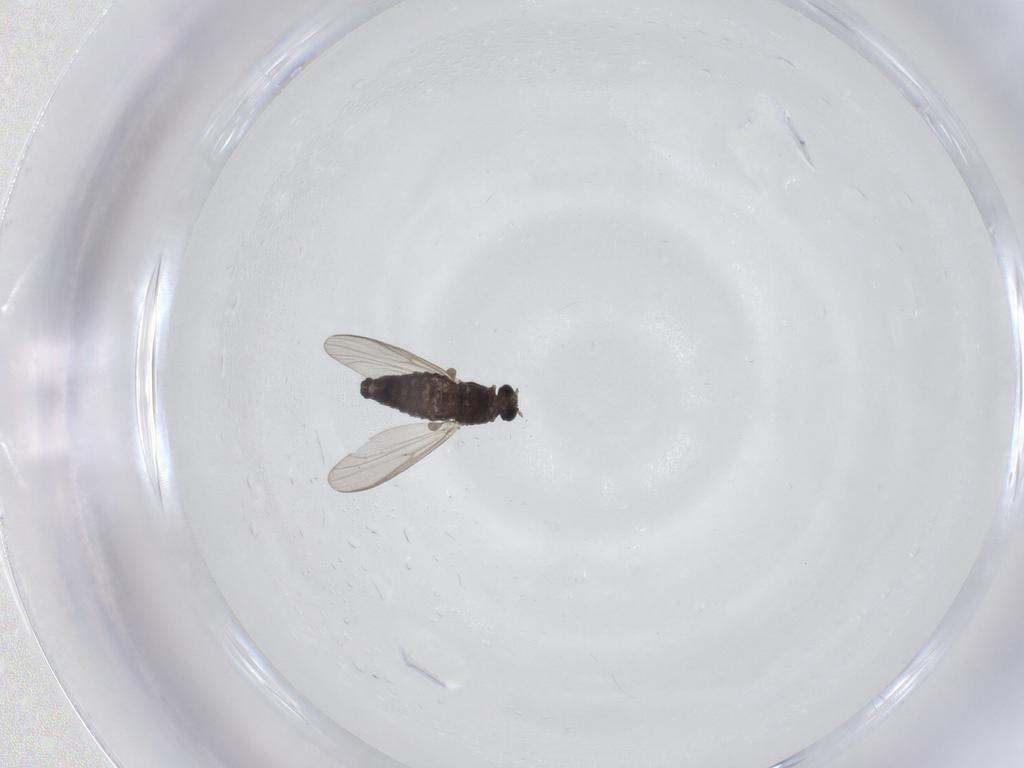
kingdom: Animalia
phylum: Arthropoda
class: Insecta
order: Diptera
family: Chironomidae
